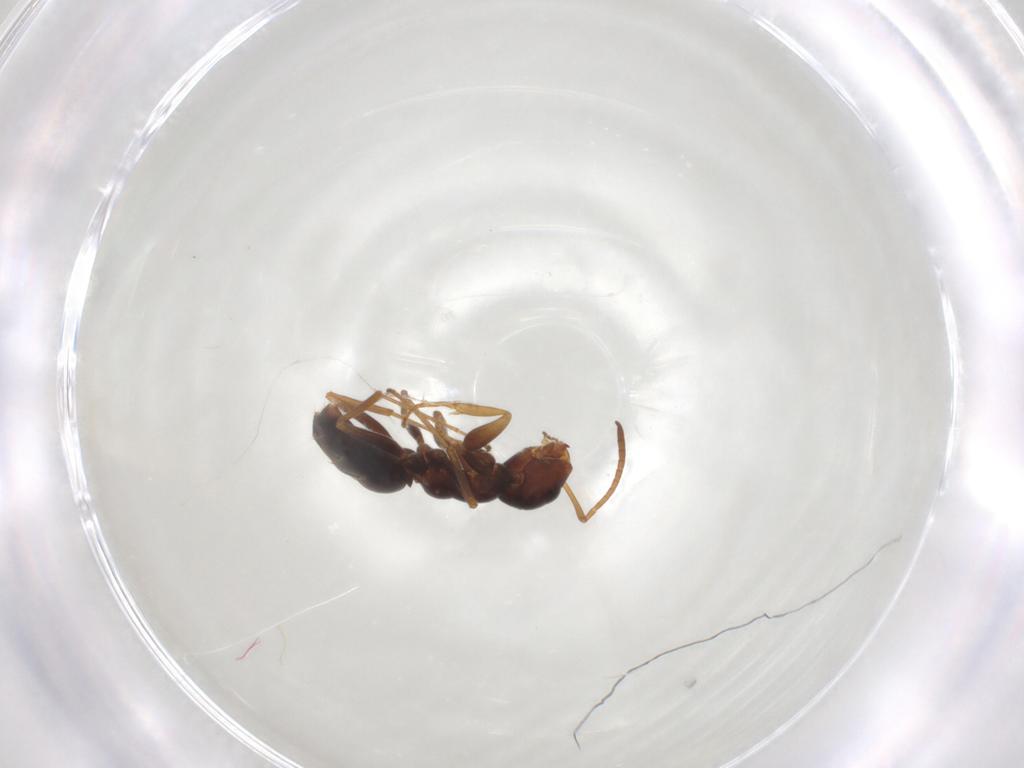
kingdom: Animalia
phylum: Arthropoda
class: Insecta
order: Hymenoptera
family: Formicidae
